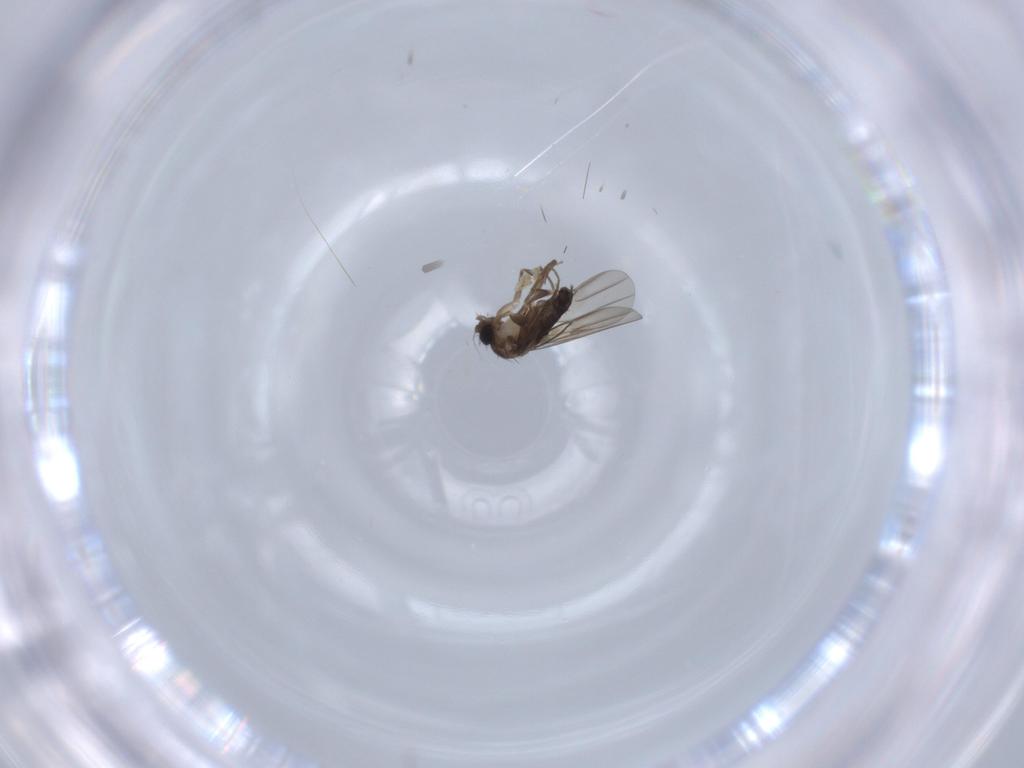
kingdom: Animalia
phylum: Arthropoda
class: Insecta
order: Diptera
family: Phoridae
